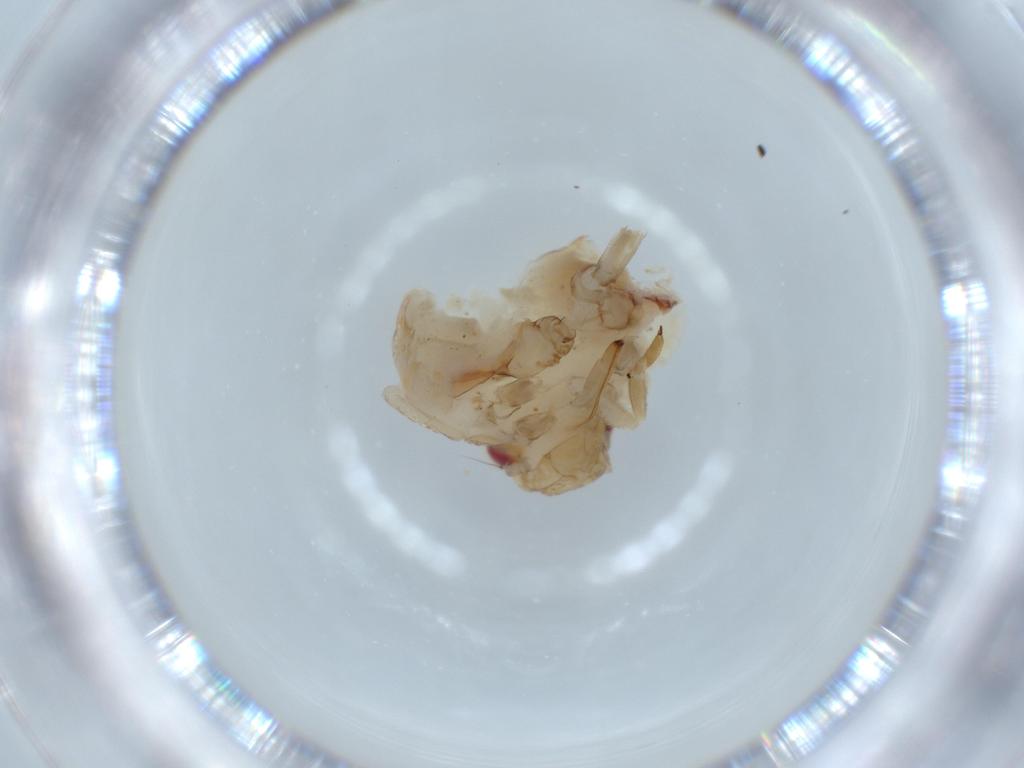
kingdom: Animalia
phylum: Arthropoda
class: Insecta
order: Hemiptera
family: Acanaloniidae
